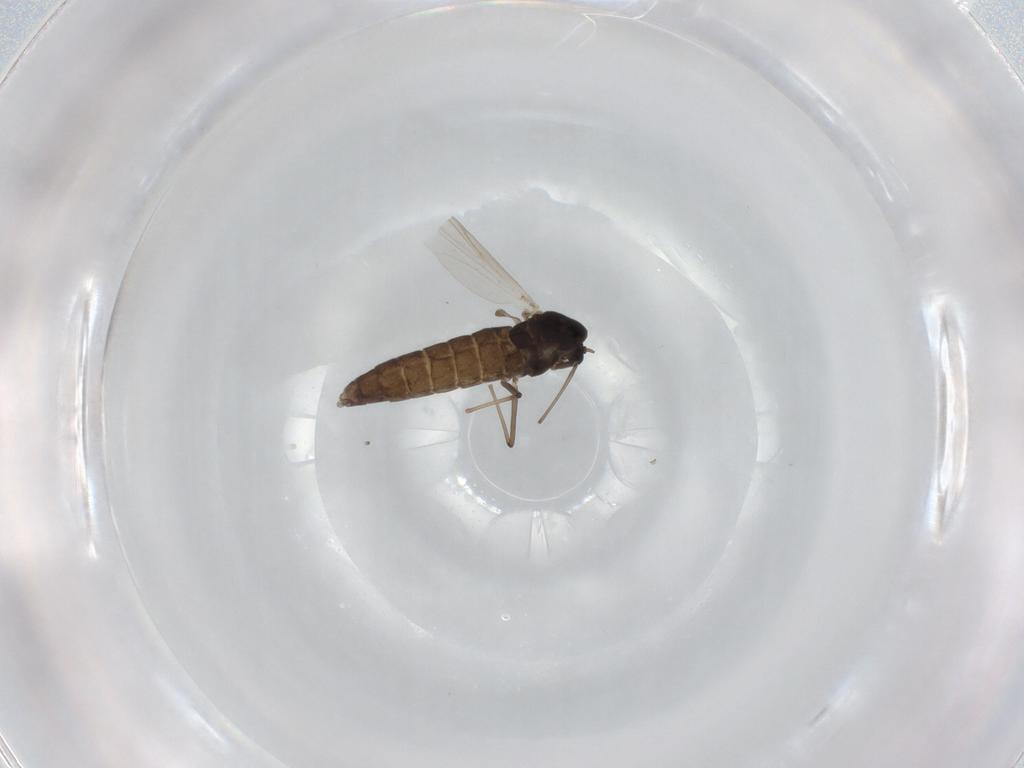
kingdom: Animalia
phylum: Arthropoda
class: Insecta
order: Diptera
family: Chironomidae
